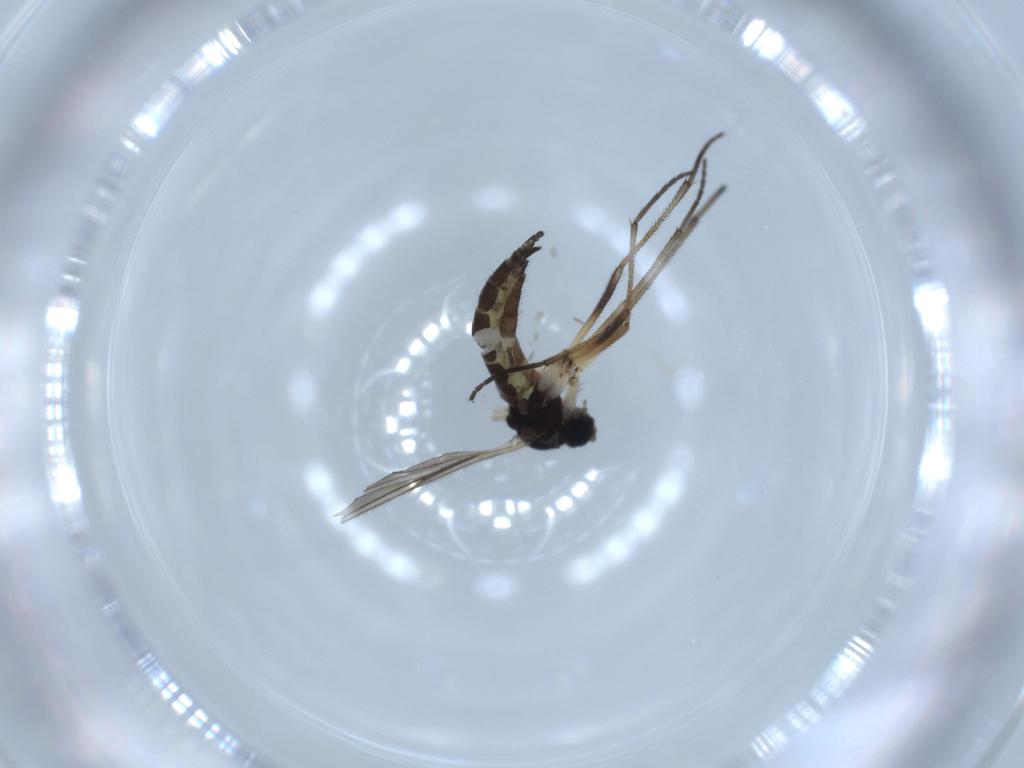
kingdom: Animalia
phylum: Arthropoda
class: Insecta
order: Diptera
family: Sciaridae
